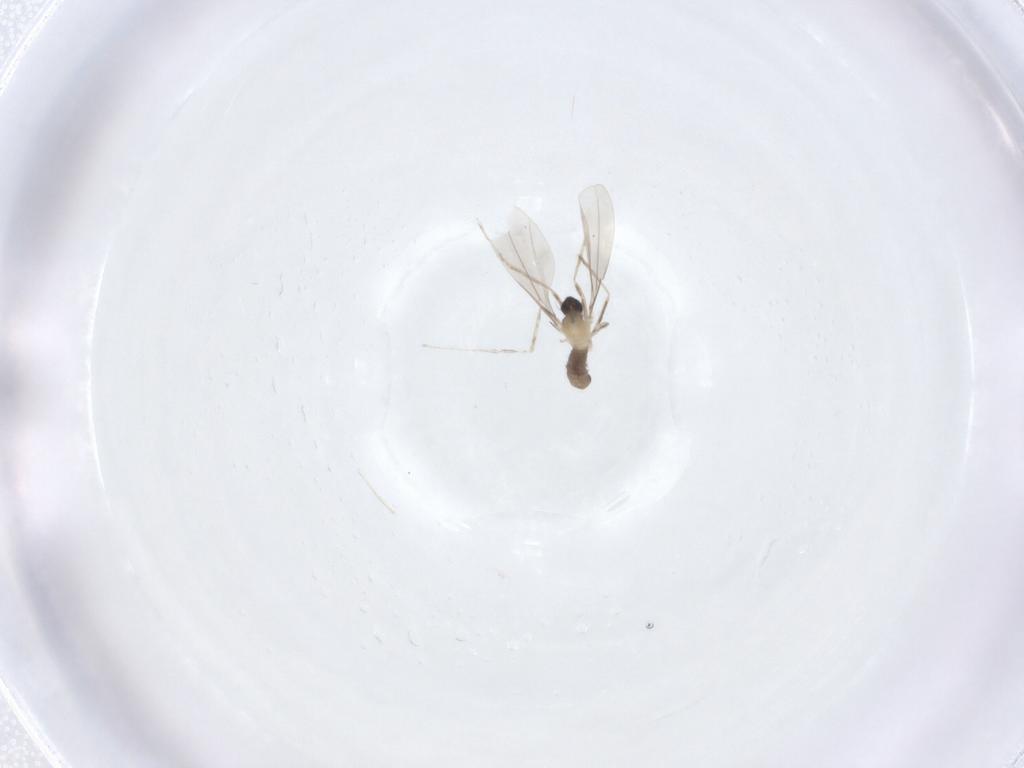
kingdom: Animalia
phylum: Arthropoda
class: Insecta
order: Diptera
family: Cecidomyiidae
